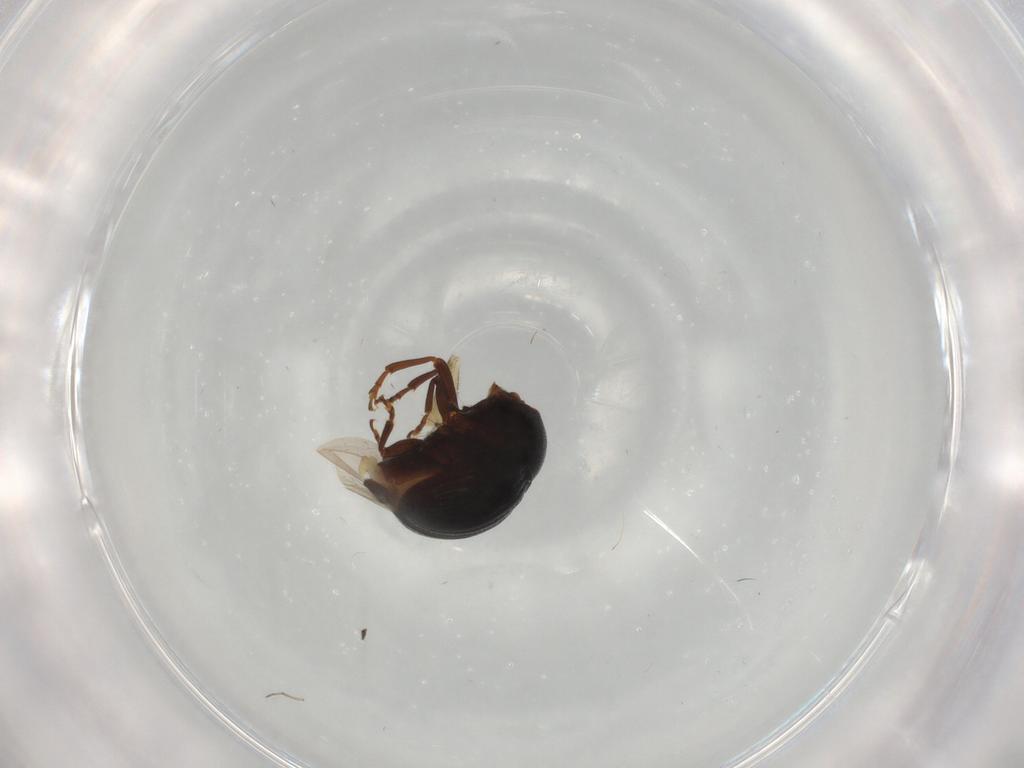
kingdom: Animalia
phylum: Arthropoda
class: Insecta
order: Coleoptera
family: Anthribidae
